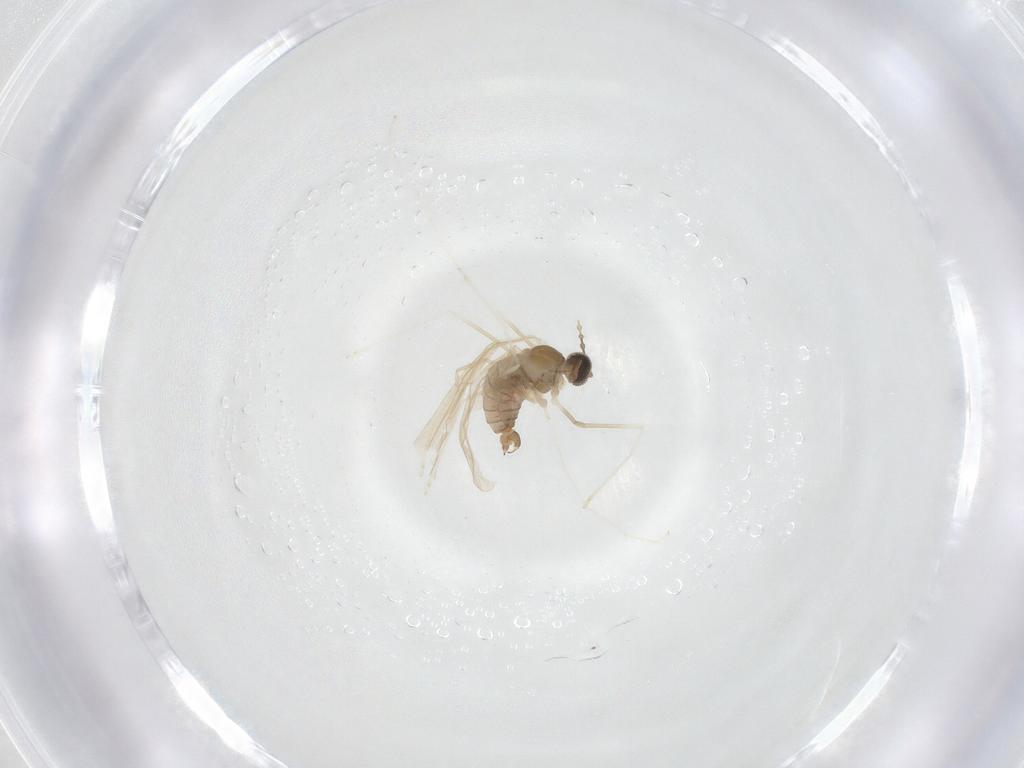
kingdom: Animalia
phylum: Arthropoda
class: Insecta
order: Diptera
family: Cecidomyiidae
